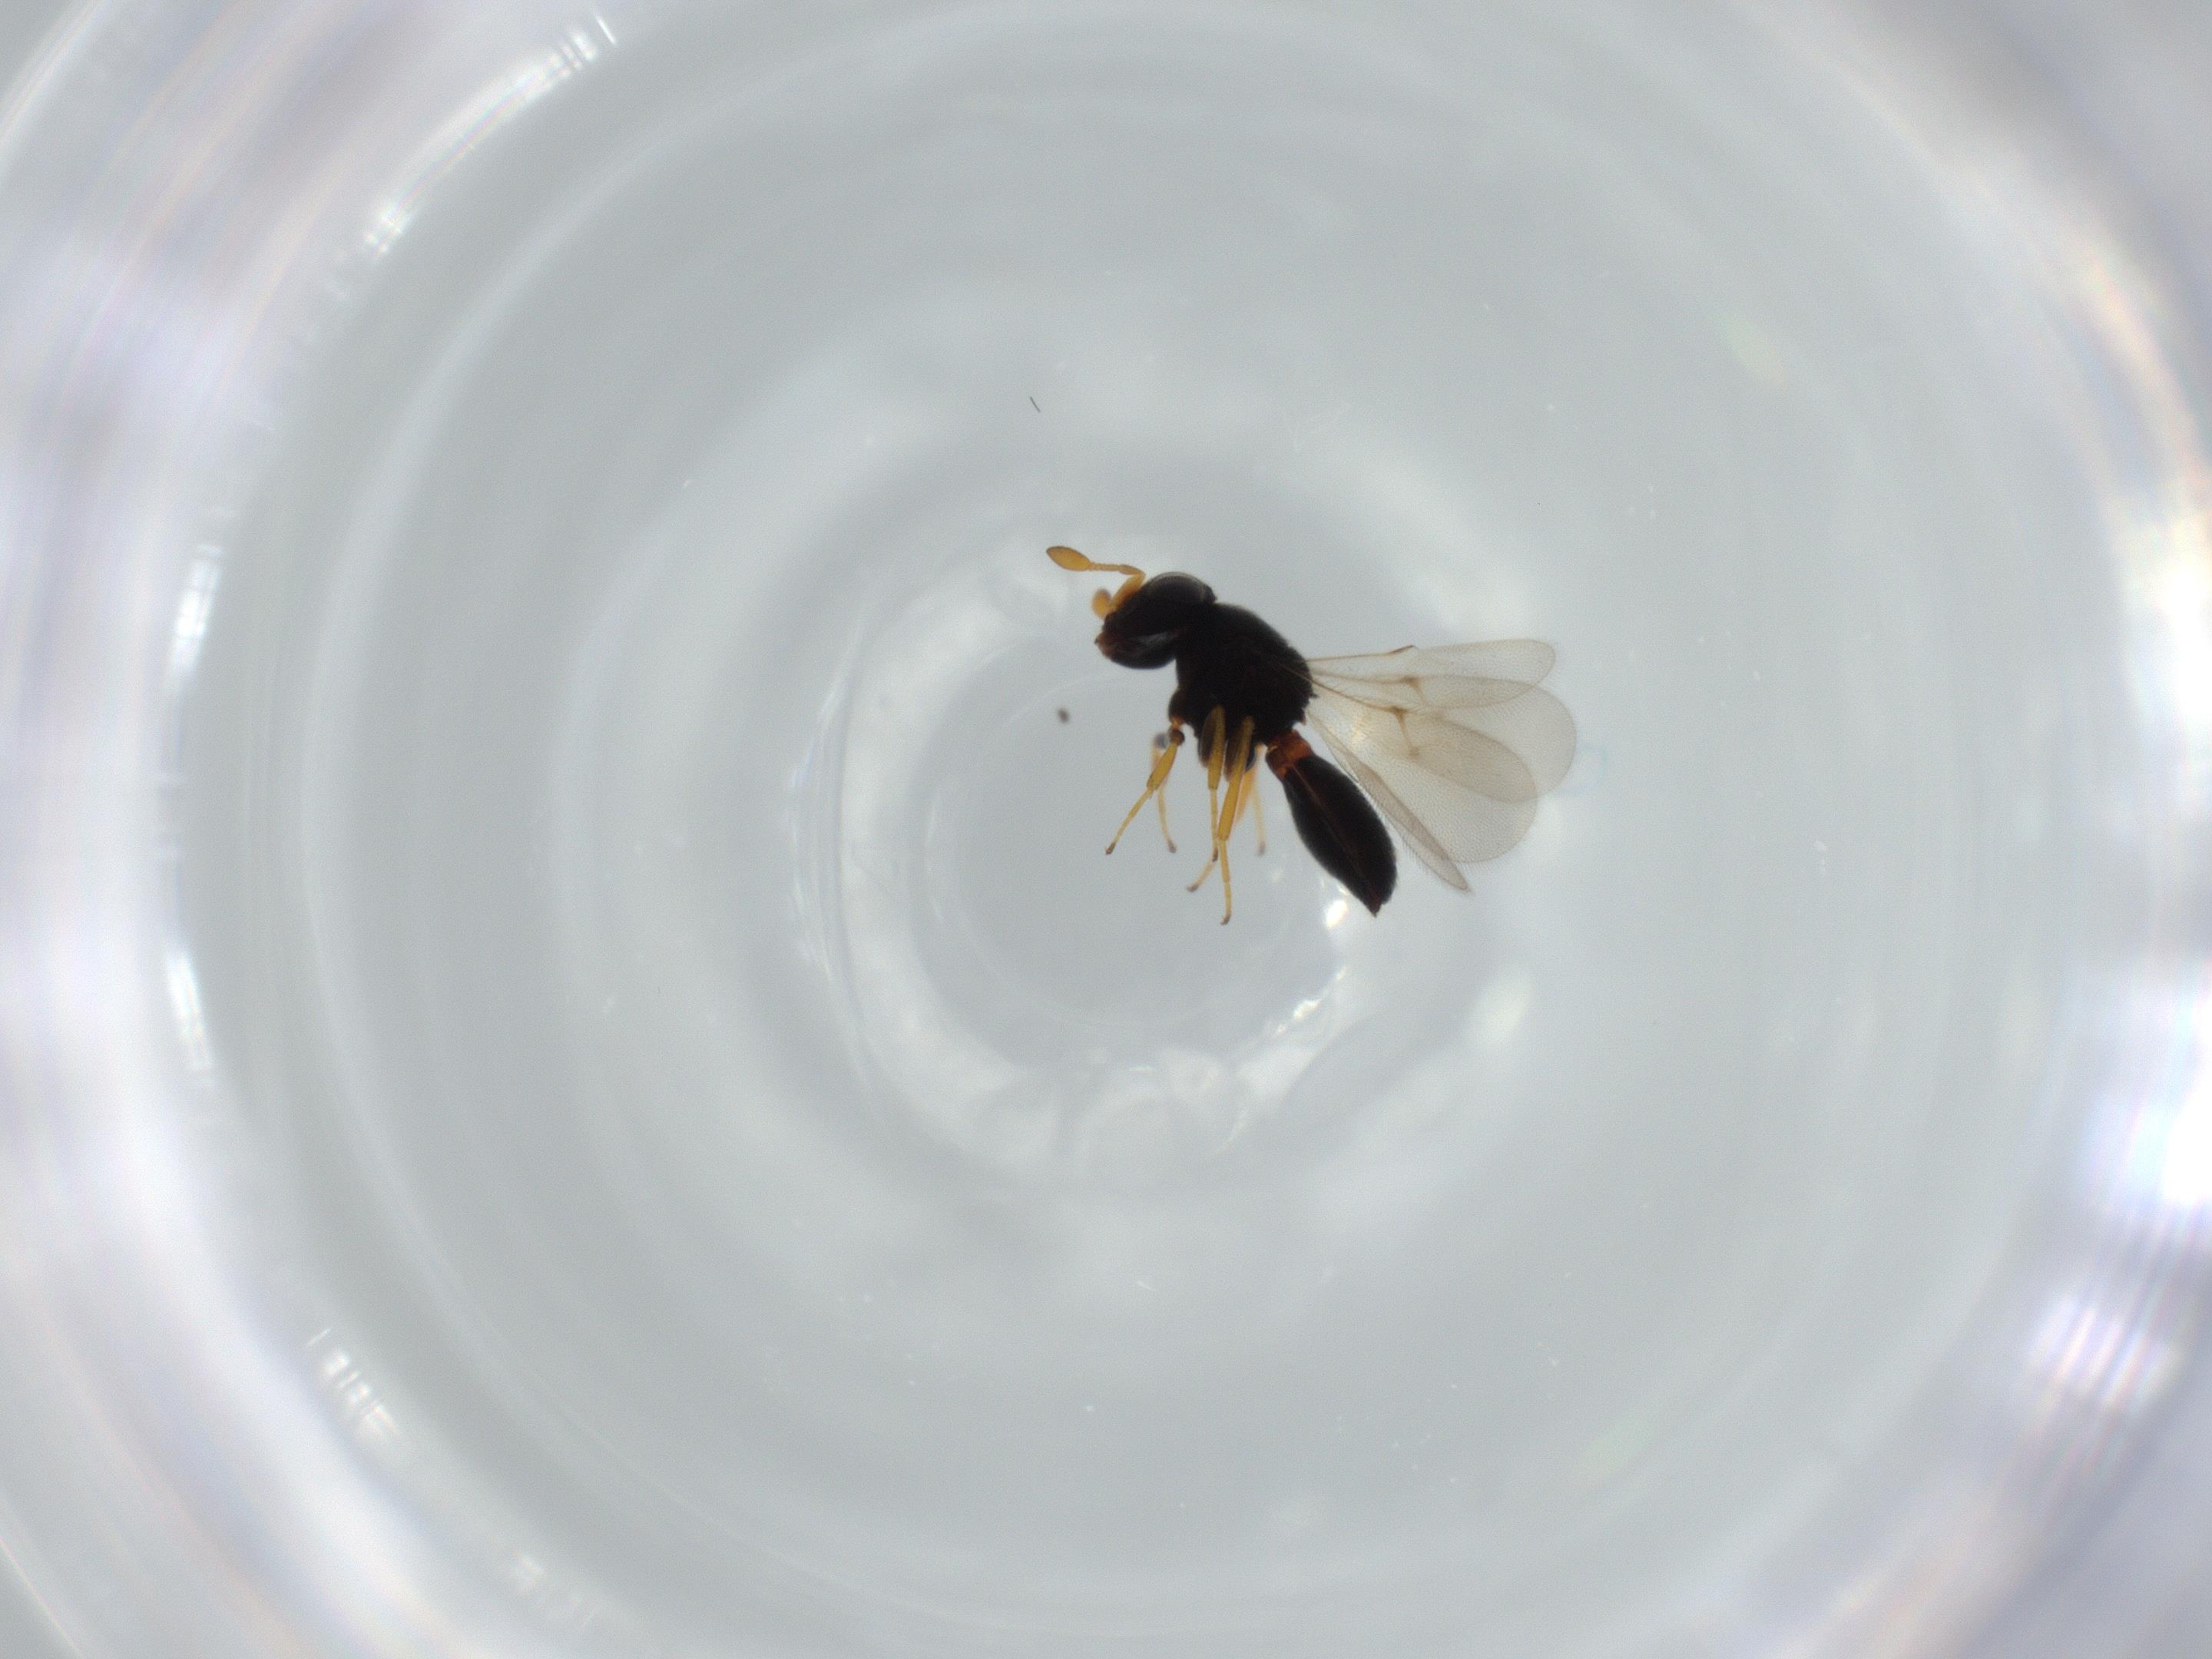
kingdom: Animalia
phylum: Arthropoda
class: Insecta
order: Hymenoptera
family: Scelionidae
